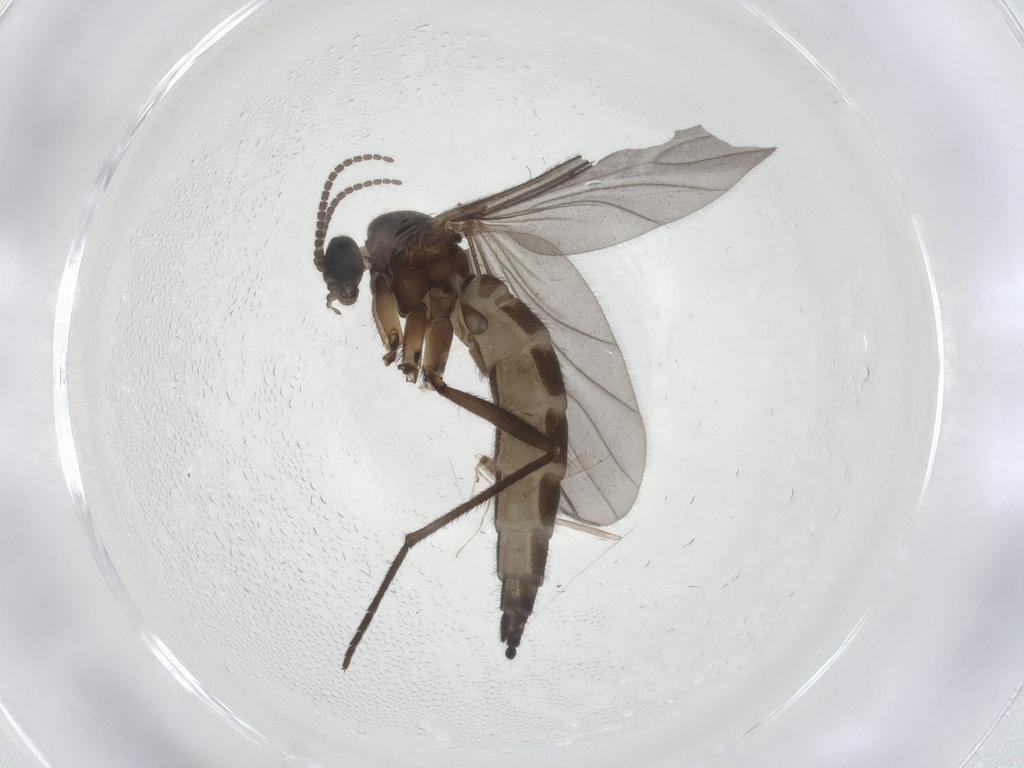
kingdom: Animalia
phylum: Arthropoda
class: Insecta
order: Diptera
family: Sciaridae
